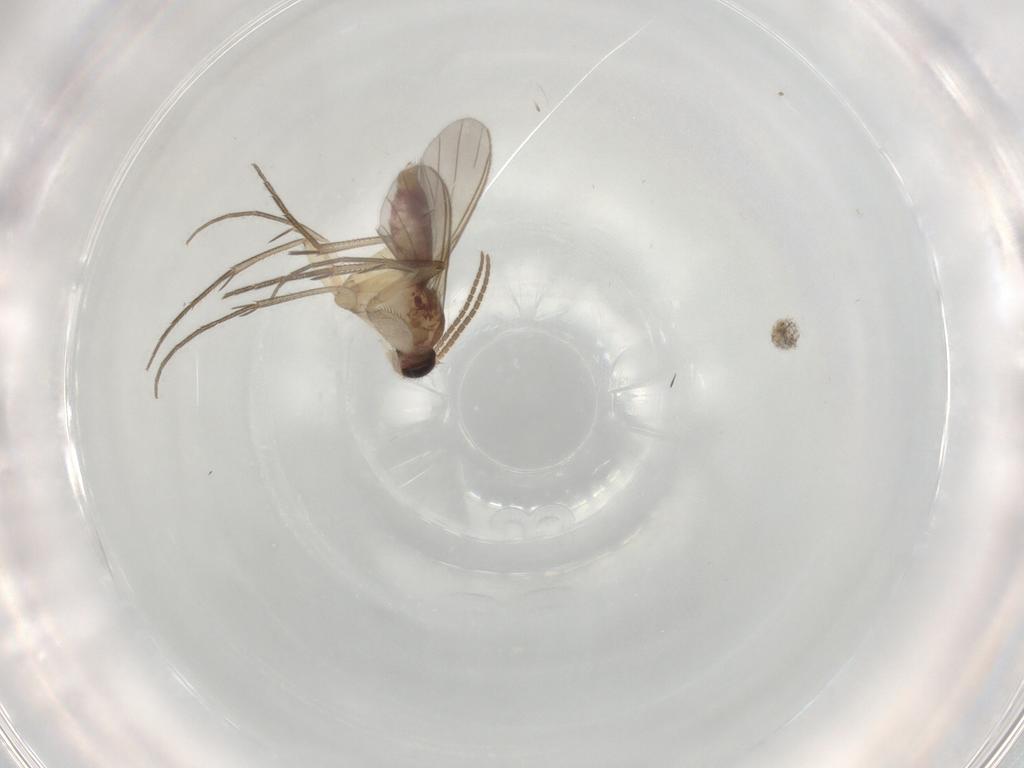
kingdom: Animalia
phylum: Arthropoda
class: Insecta
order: Diptera
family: Mycetophilidae
